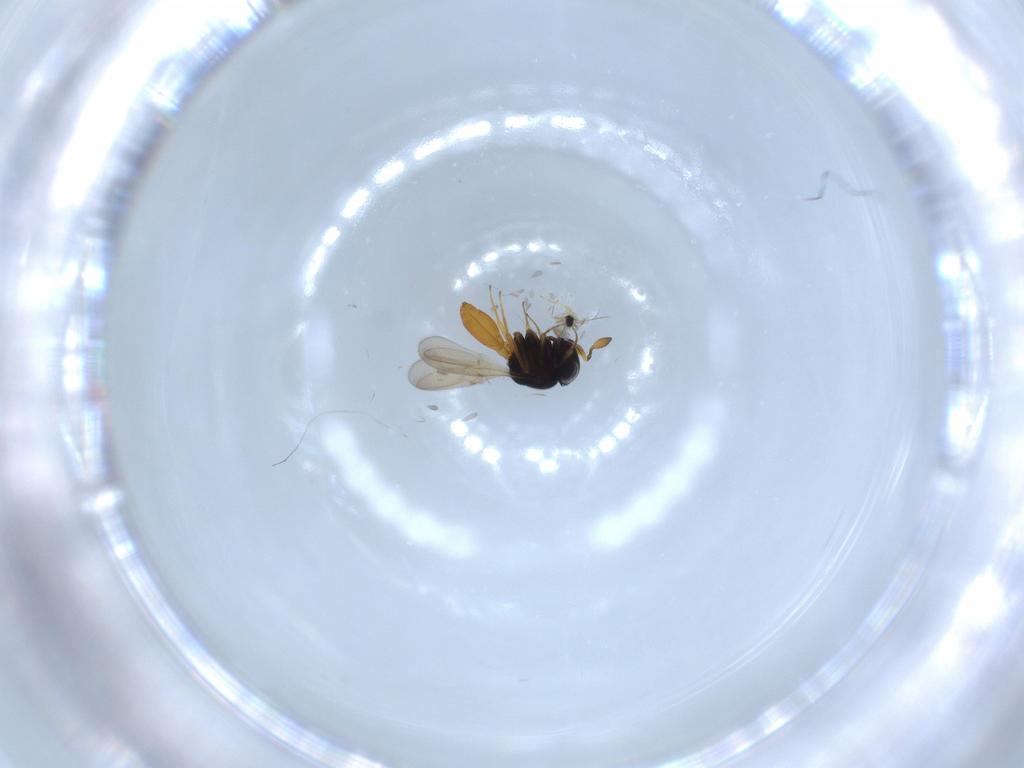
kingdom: Animalia
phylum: Arthropoda
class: Insecta
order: Hymenoptera
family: Scelionidae
